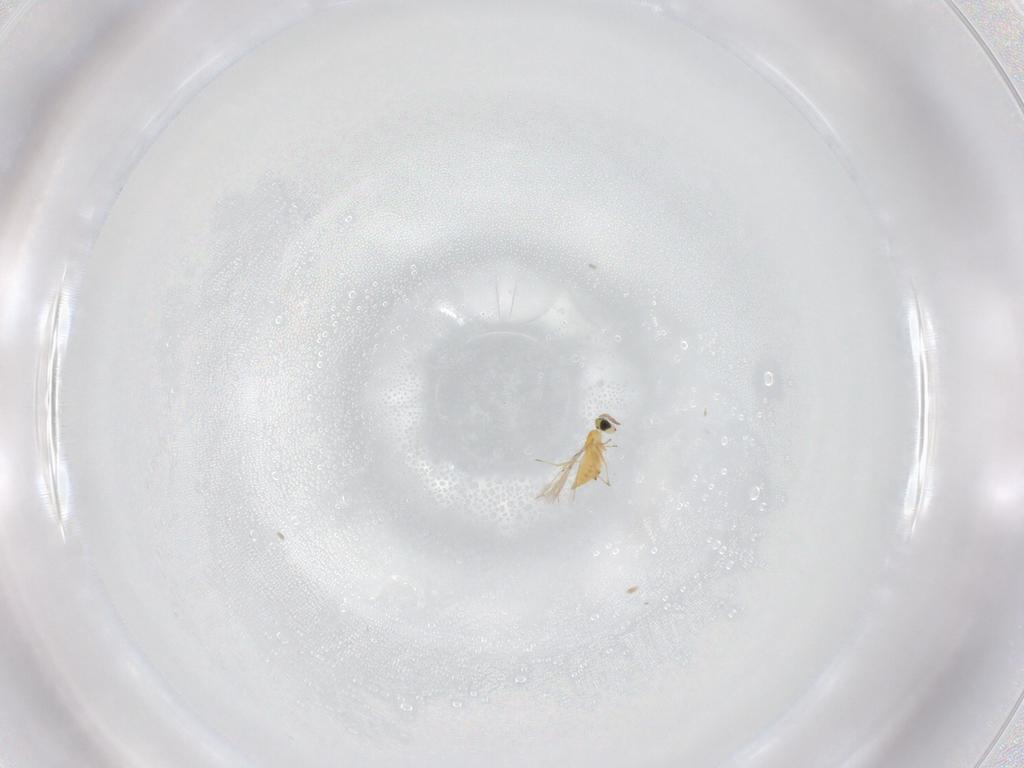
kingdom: Animalia
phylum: Arthropoda
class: Insecta
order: Hymenoptera
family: Trichogrammatidae
